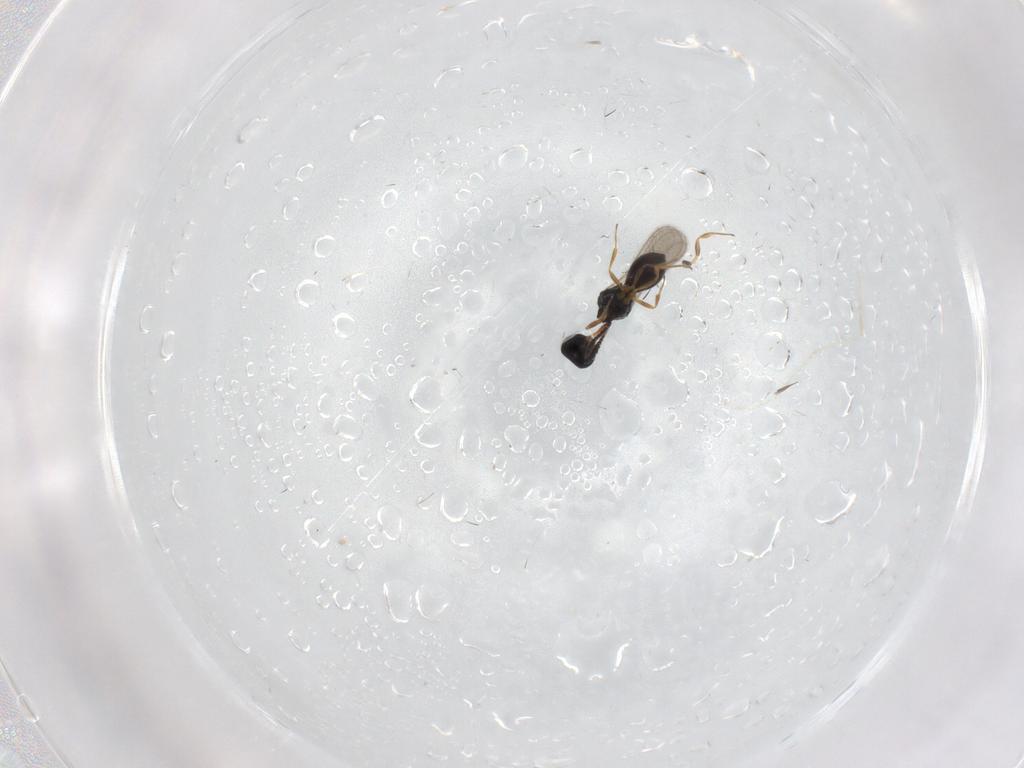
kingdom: Animalia
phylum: Arthropoda
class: Insecta
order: Hymenoptera
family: Scelionidae
